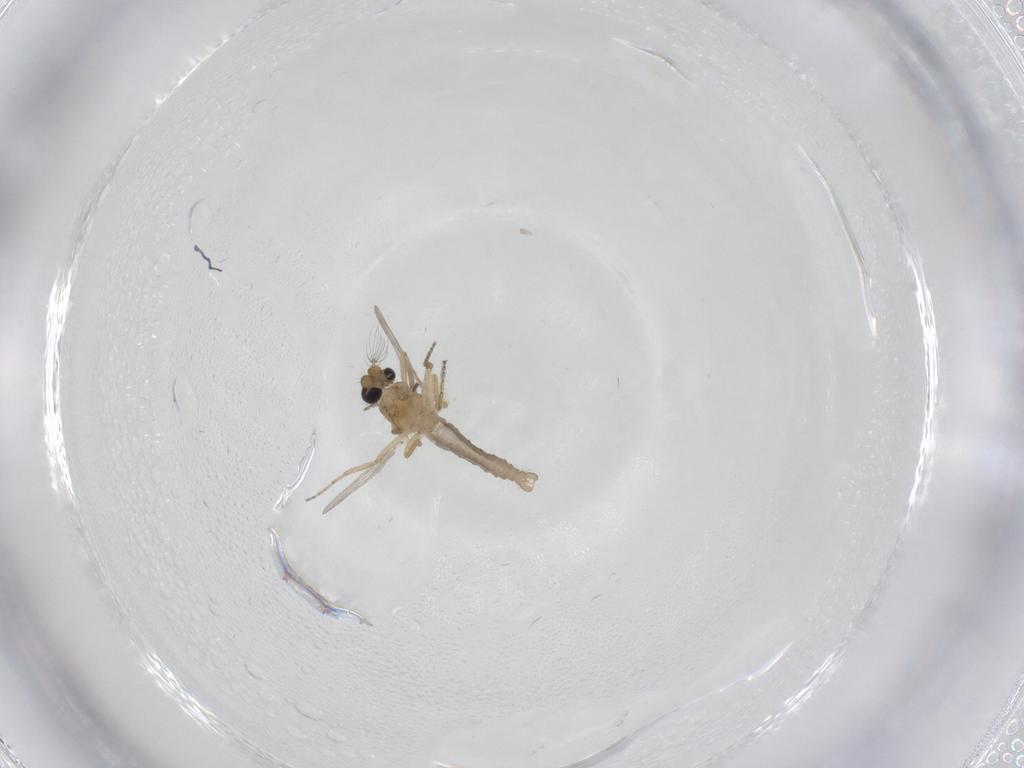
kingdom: Animalia
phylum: Arthropoda
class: Insecta
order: Diptera
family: Ceratopogonidae
